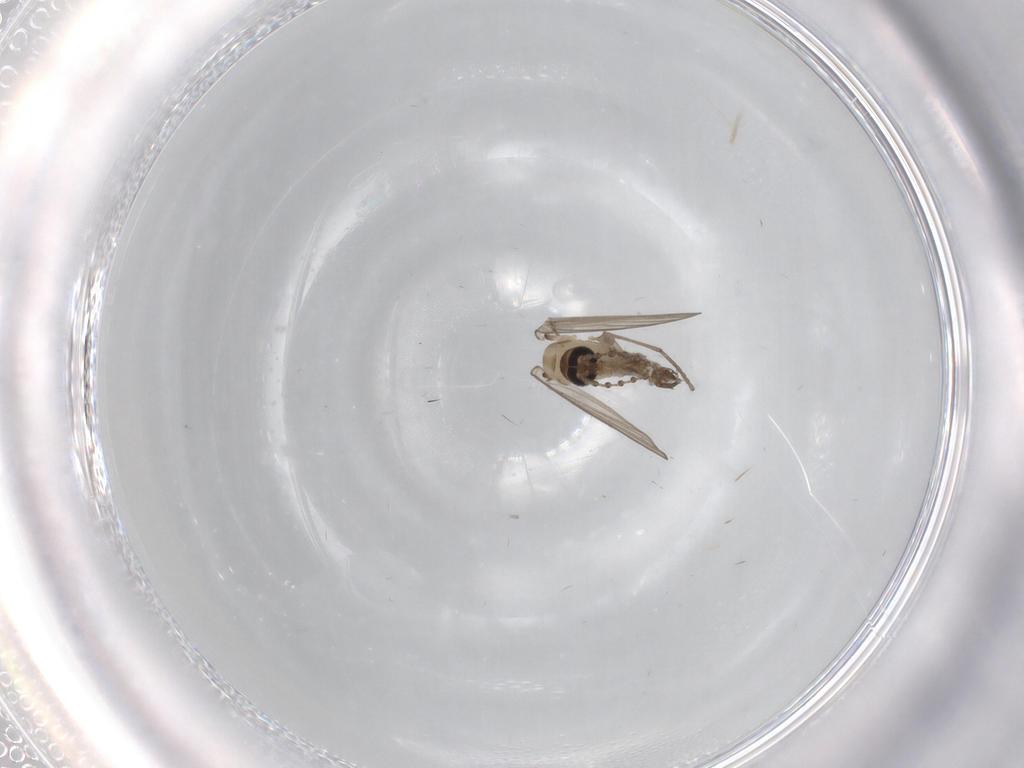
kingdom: Animalia
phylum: Arthropoda
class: Insecta
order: Diptera
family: Psychodidae
